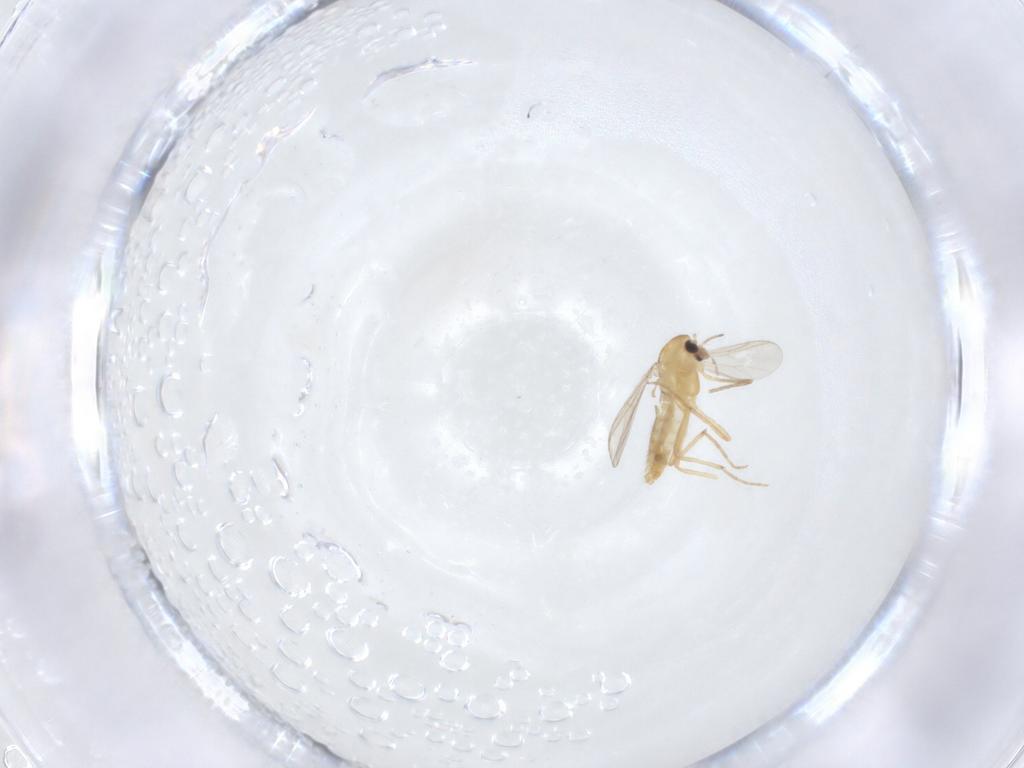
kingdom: Animalia
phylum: Arthropoda
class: Insecta
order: Diptera
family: Chironomidae
